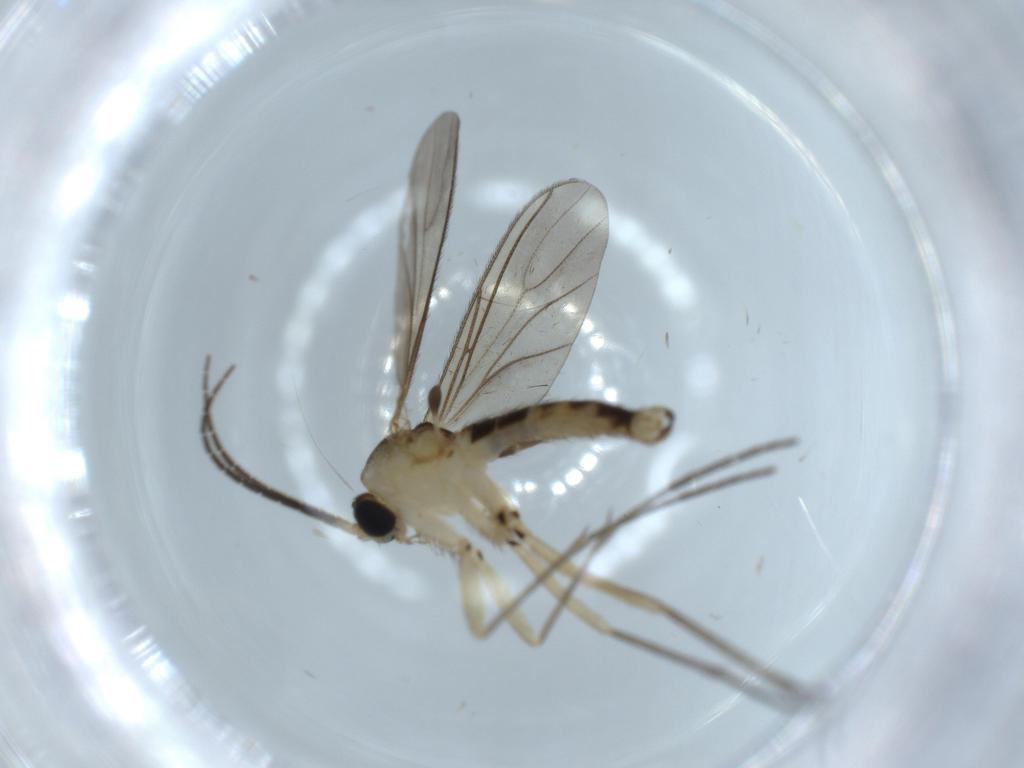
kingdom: Animalia
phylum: Arthropoda
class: Insecta
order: Diptera
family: Sciaridae
